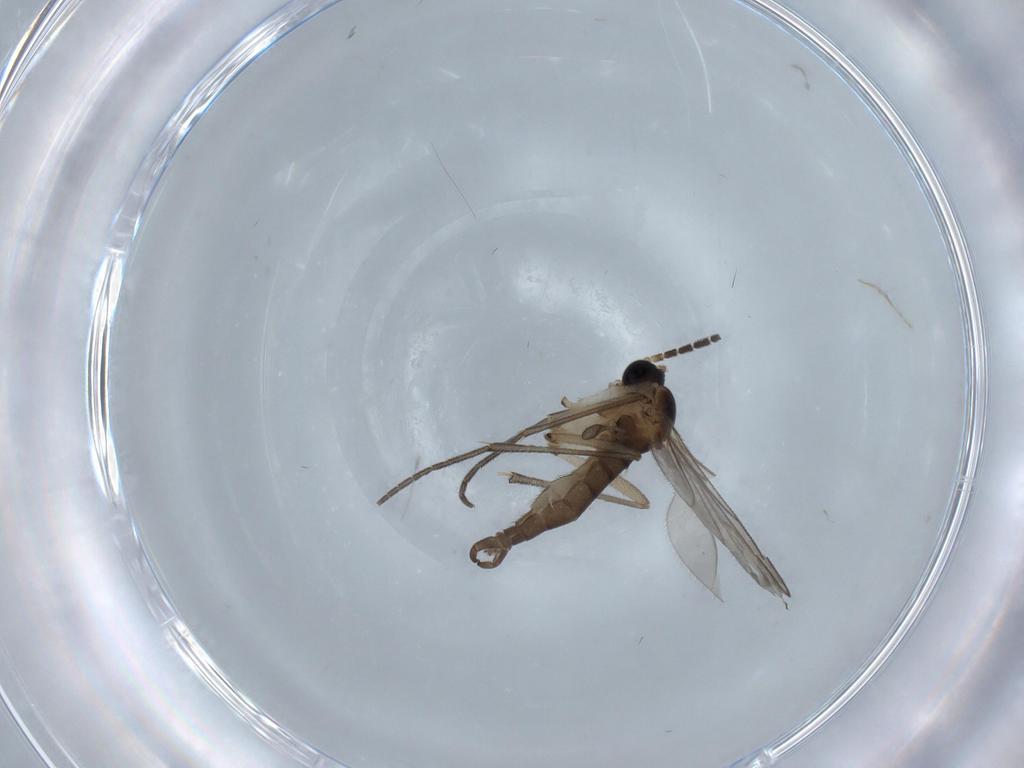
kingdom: Animalia
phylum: Arthropoda
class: Insecta
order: Diptera
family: Sciaridae
